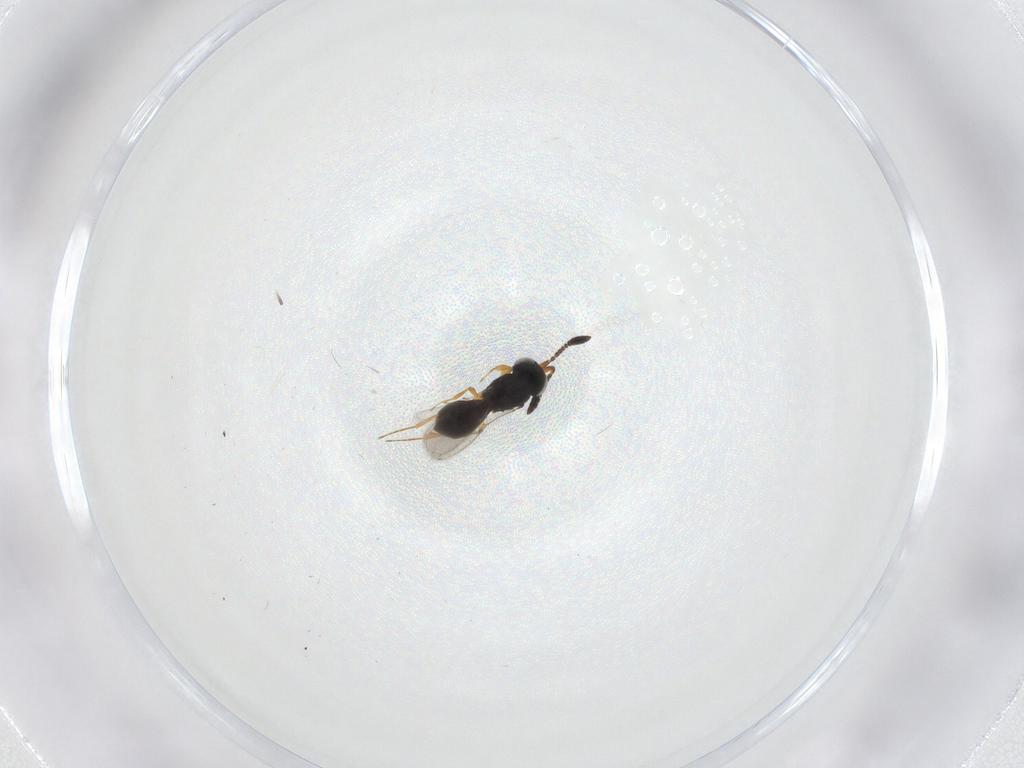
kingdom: Animalia
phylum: Arthropoda
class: Insecta
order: Hymenoptera
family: Scelionidae
